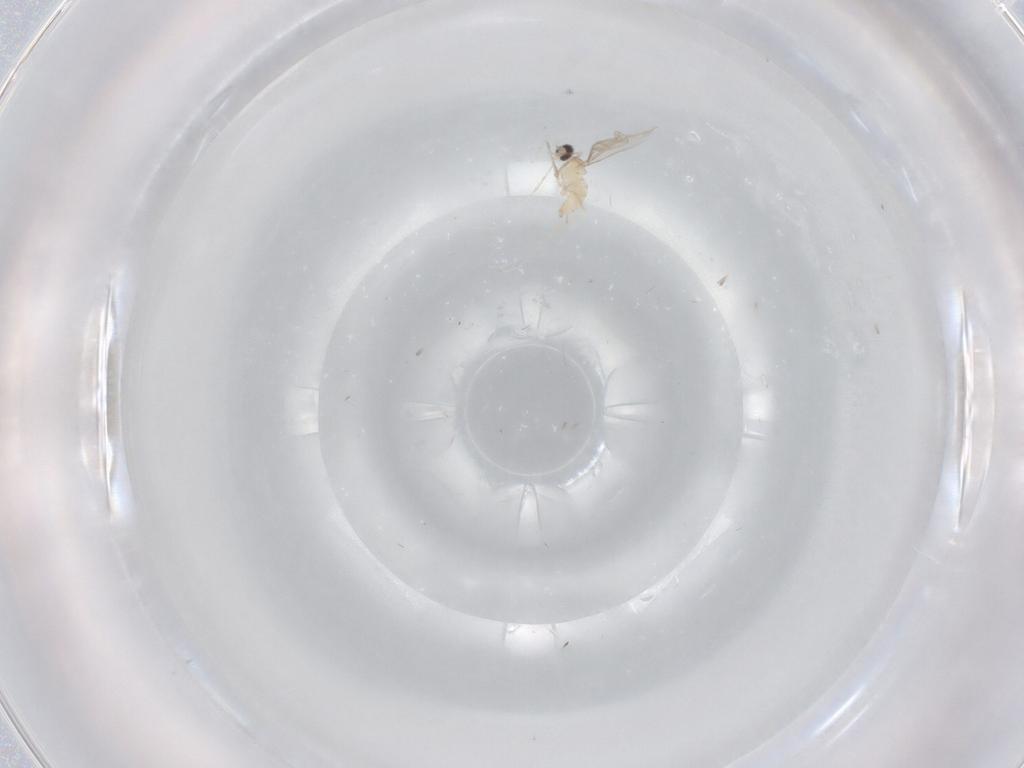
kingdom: Animalia
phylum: Arthropoda
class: Insecta
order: Diptera
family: Cecidomyiidae
